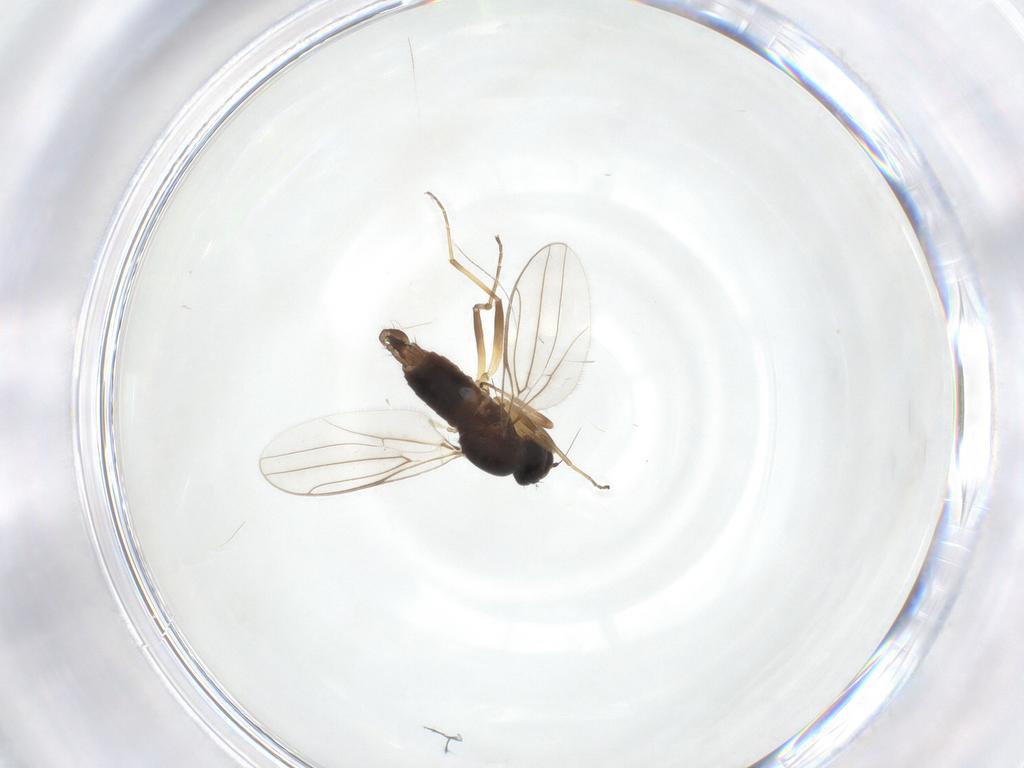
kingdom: Animalia
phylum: Arthropoda
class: Insecta
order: Diptera
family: Hybotidae
